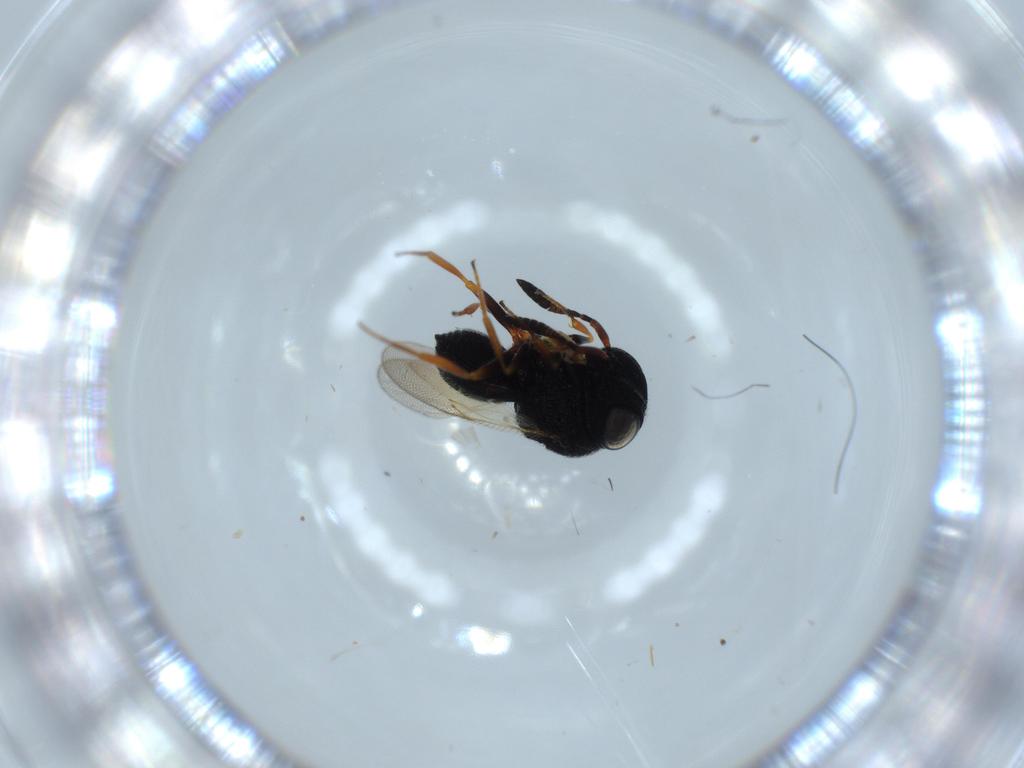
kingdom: Animalia
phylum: Arthropoda
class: Insecta
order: Hymenoptera
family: Scelionidae
